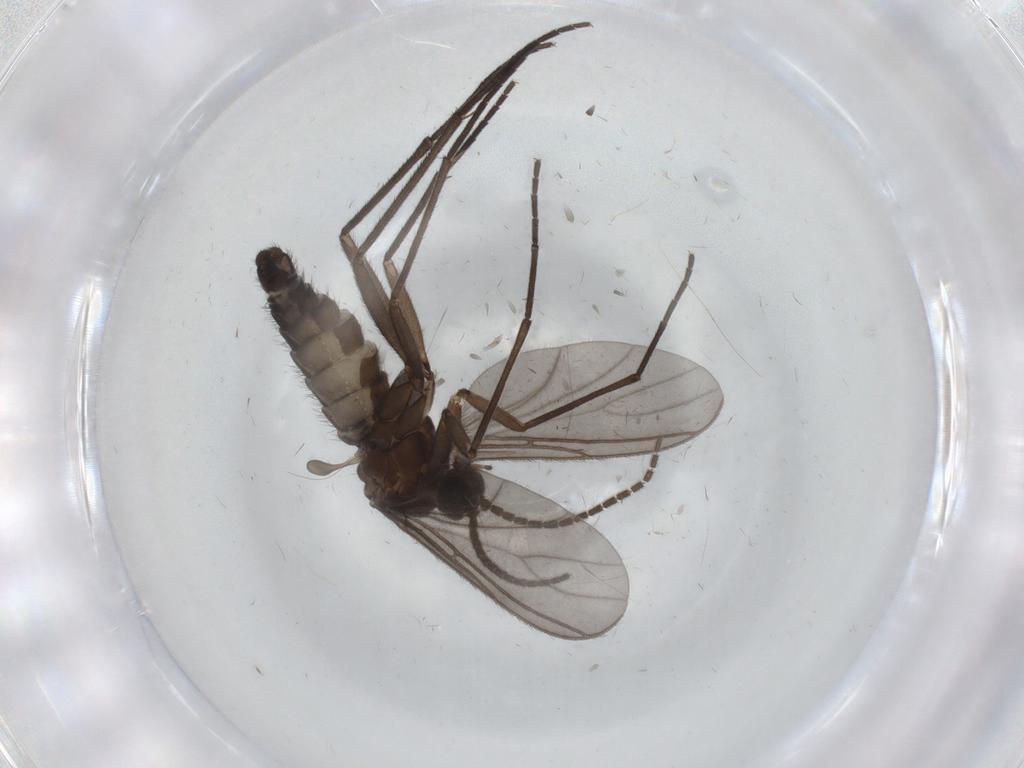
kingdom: Animalia
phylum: Arthropoda
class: Insecta
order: Diptera
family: Sciaridae
